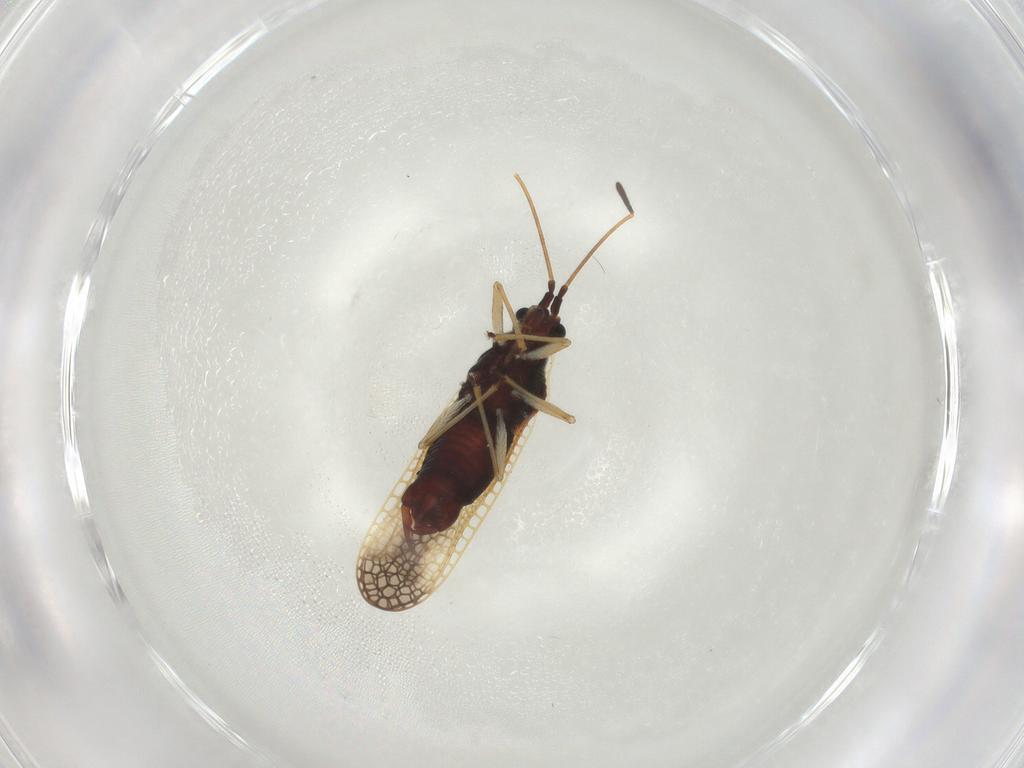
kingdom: Animalia
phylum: Arthropoda
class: Insecta
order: Hemiptera
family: Tingidae
